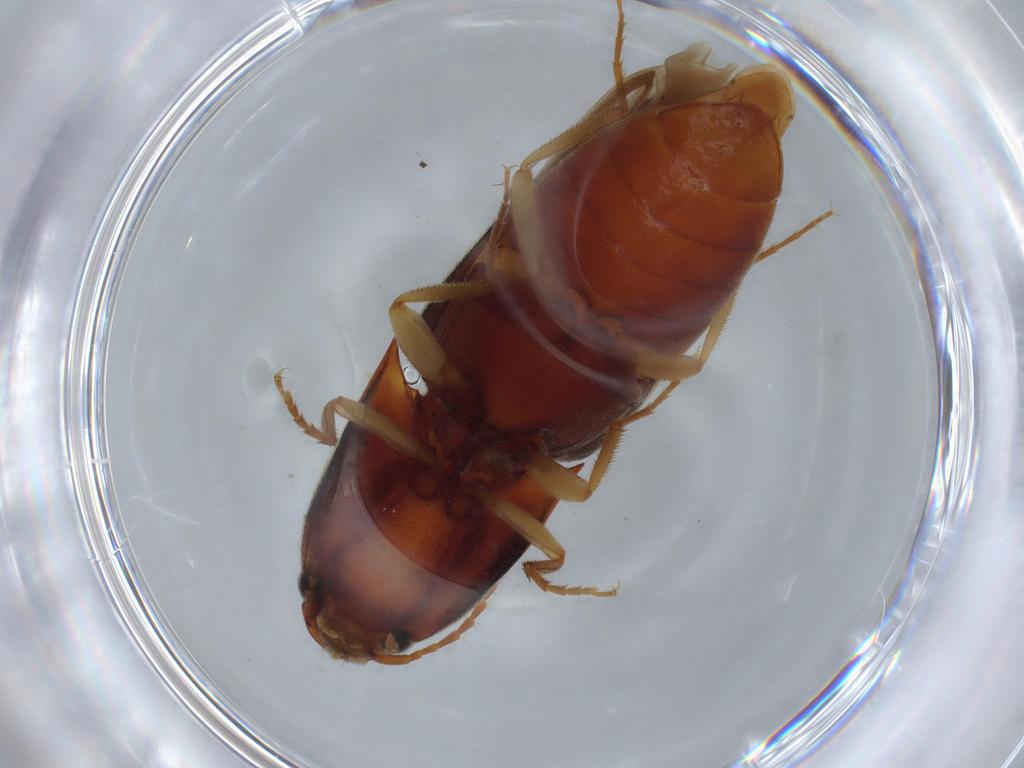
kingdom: Animalia
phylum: Arthropoda
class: Insecta
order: Coleoptera
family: Elateridae
